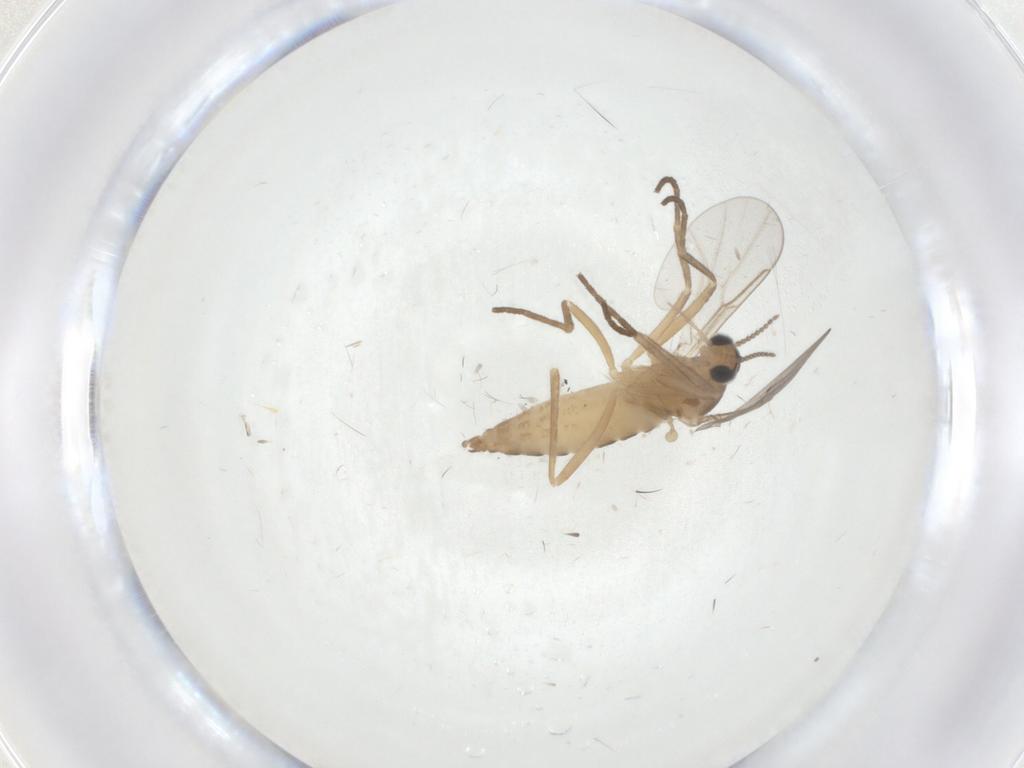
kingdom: Animalia
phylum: Arthropoda
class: Insecta
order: Diptera
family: Cecidomyiidae
